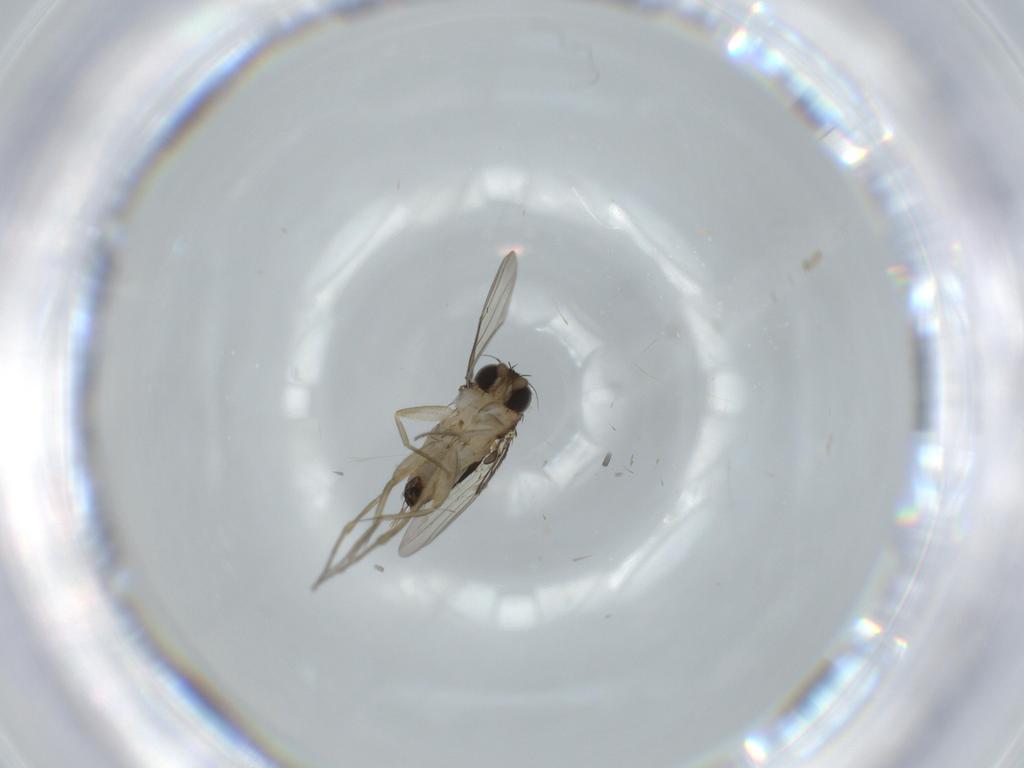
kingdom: Animalia
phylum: Arthropoda
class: Insecta
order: Diptera
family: Phoridae
